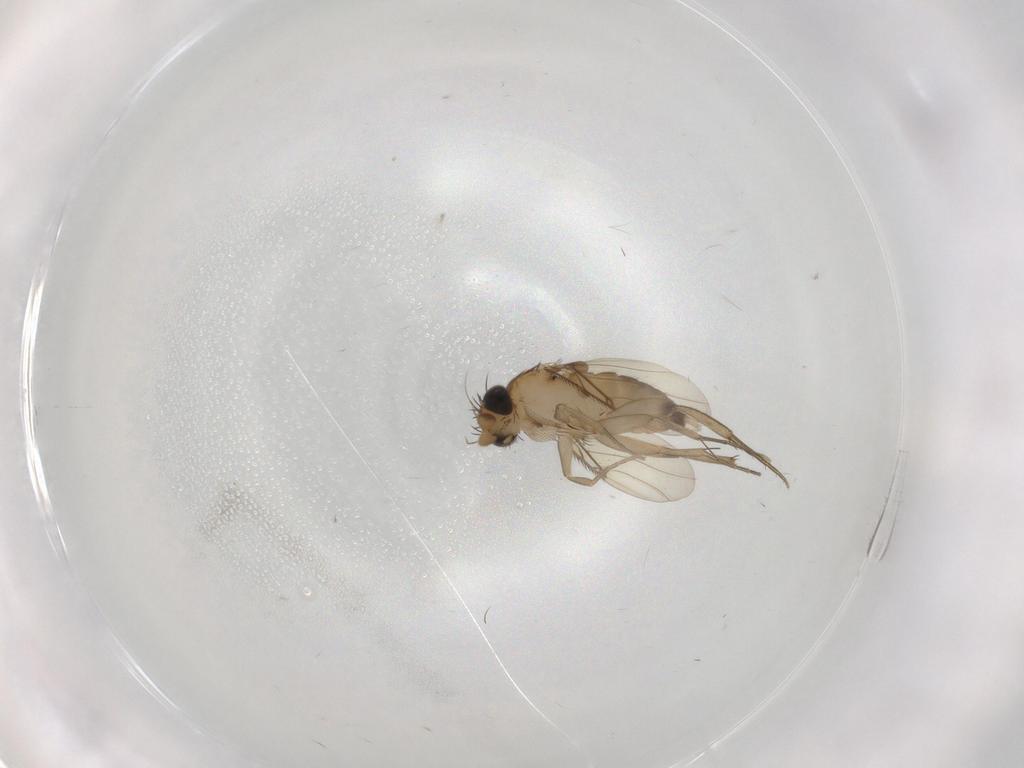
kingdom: Animalia
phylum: Arthropoda
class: Insecta
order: Diptera
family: Phoridae
